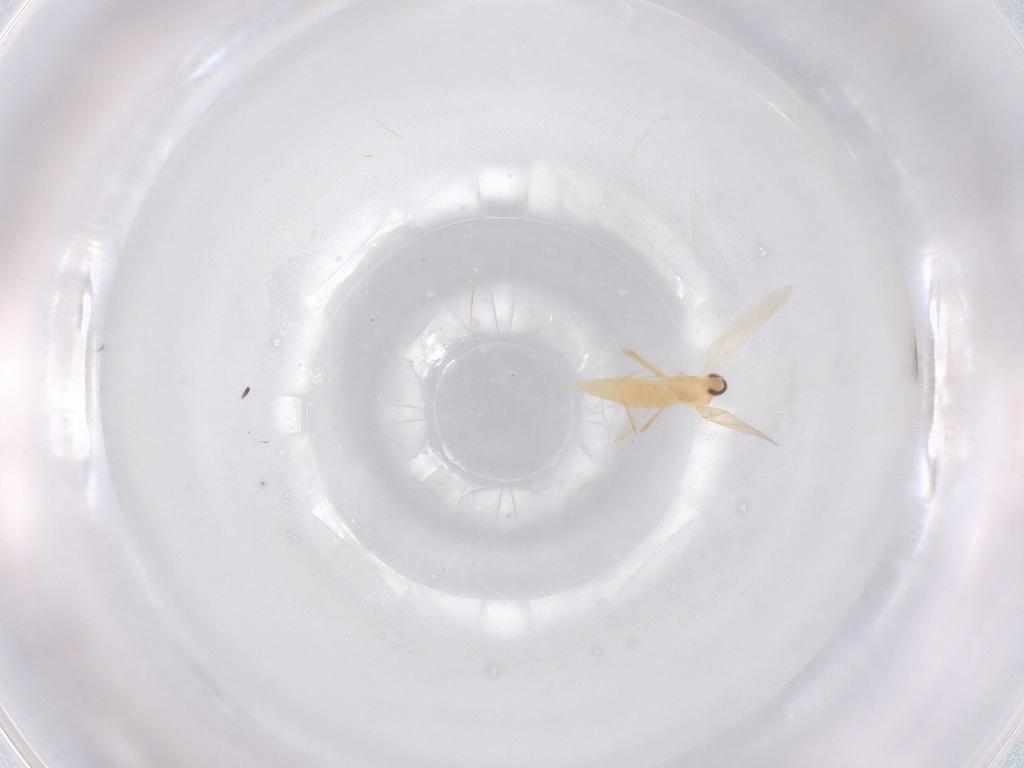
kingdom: Animalia
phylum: Arthropoda
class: Insecta
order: Diptera
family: Cecidomyiidae
